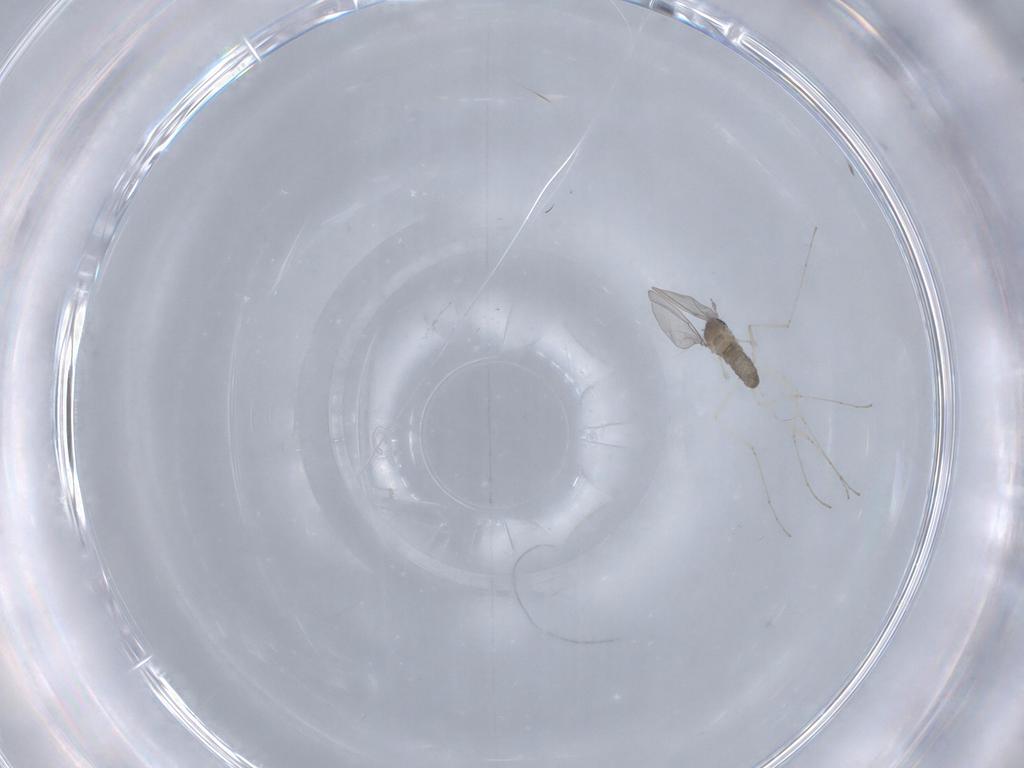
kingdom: Animalia
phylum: Arthropoda
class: Insecta
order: Diptera
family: Cecidomyiidae
